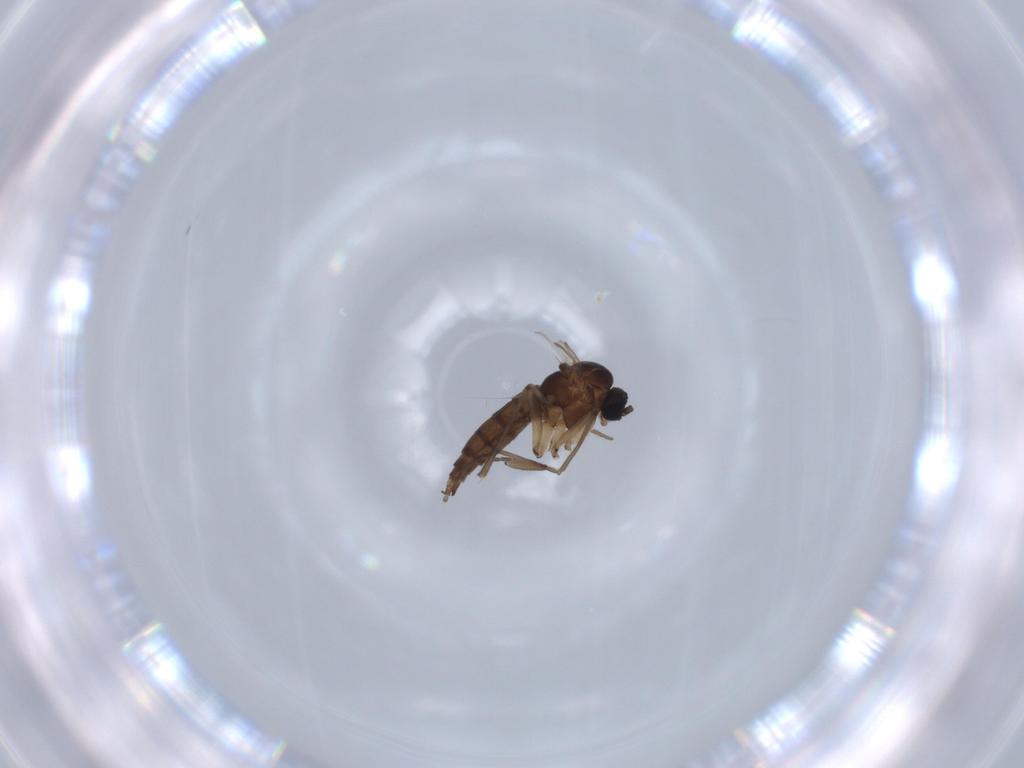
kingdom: Animalia
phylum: Arthropoda
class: Insecta
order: Diptera
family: Sciaridae
